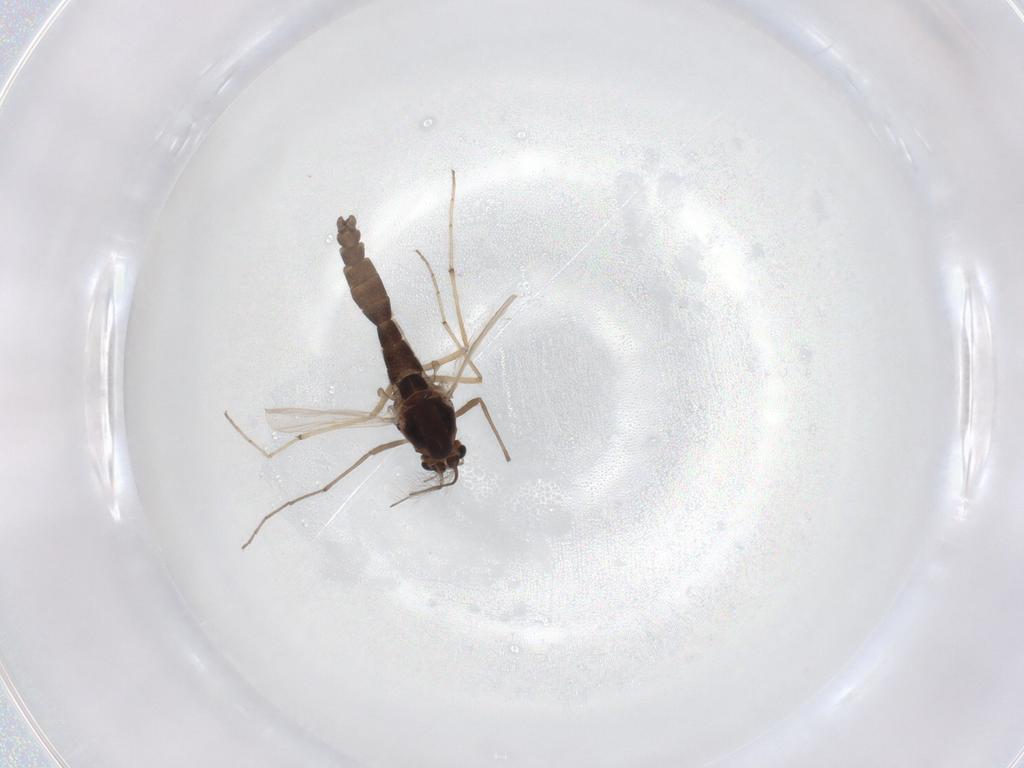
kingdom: Animalia
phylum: Arthropoda
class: Insecta
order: Diptera
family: Chironomidae
